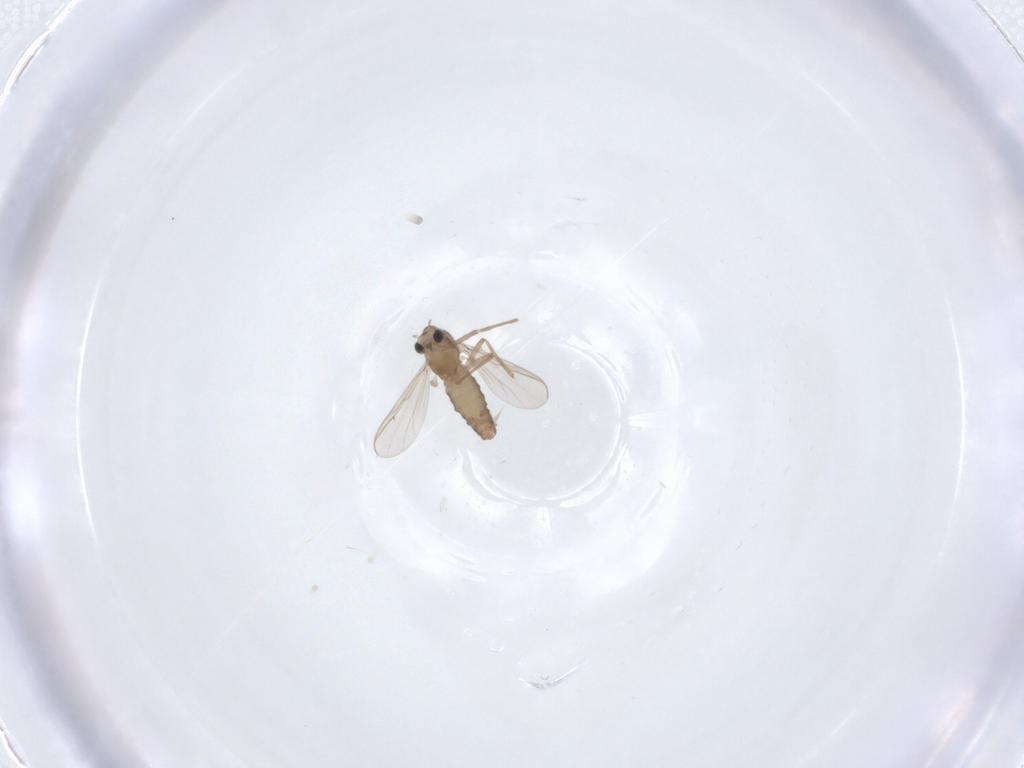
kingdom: Animalia
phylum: Arthropoda
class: Insecta
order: Diptera
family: Chironomidae
